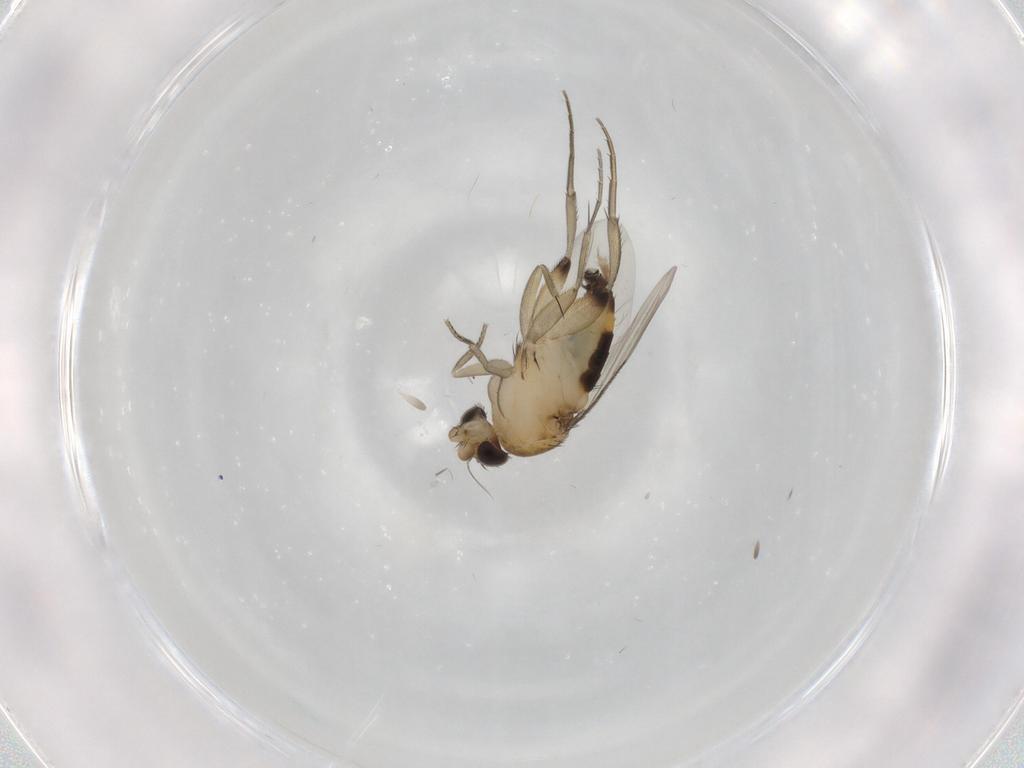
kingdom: Animalia
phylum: Arthropoda
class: Insecta
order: Diptera
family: Phoridae
